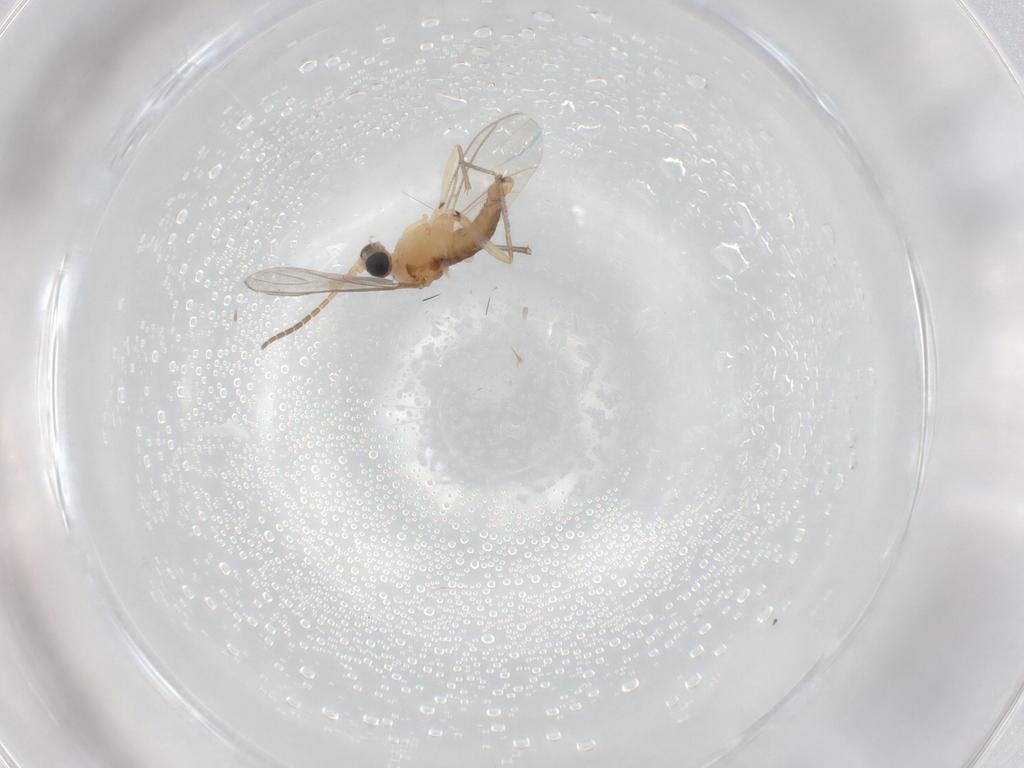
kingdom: Animalia
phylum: Arthropoda
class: Insecta
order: Diptera
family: Sciaridae
